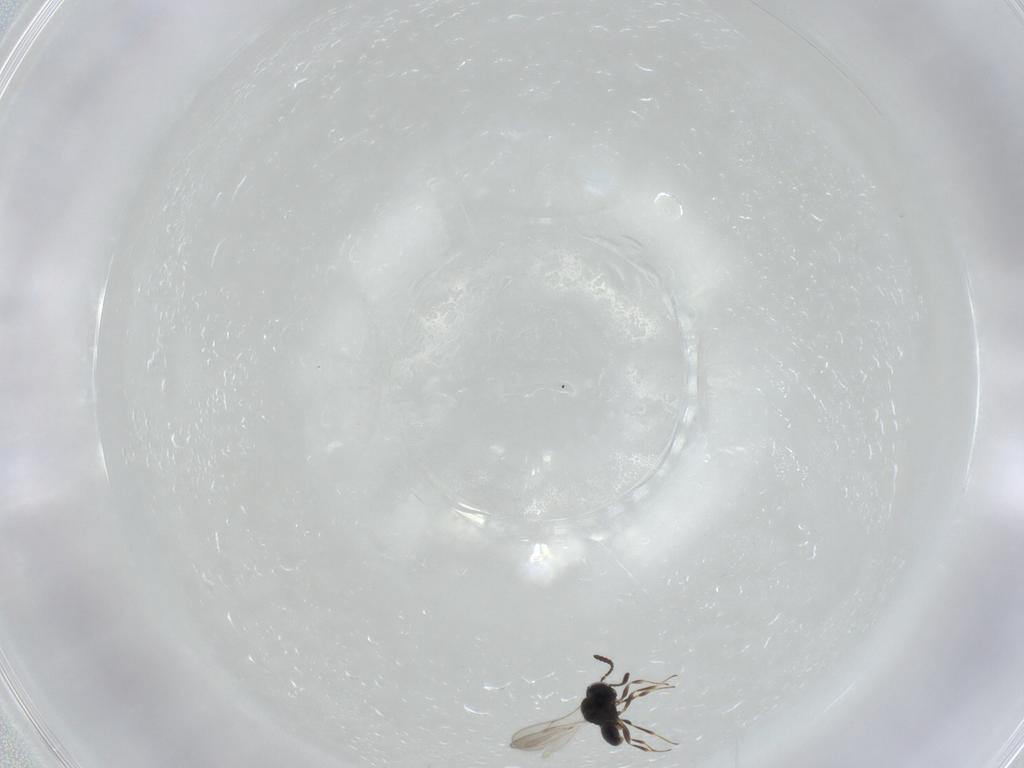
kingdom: Animalia
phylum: Arthropoda
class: Insecta
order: Hymenoptera
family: Scelionidae
